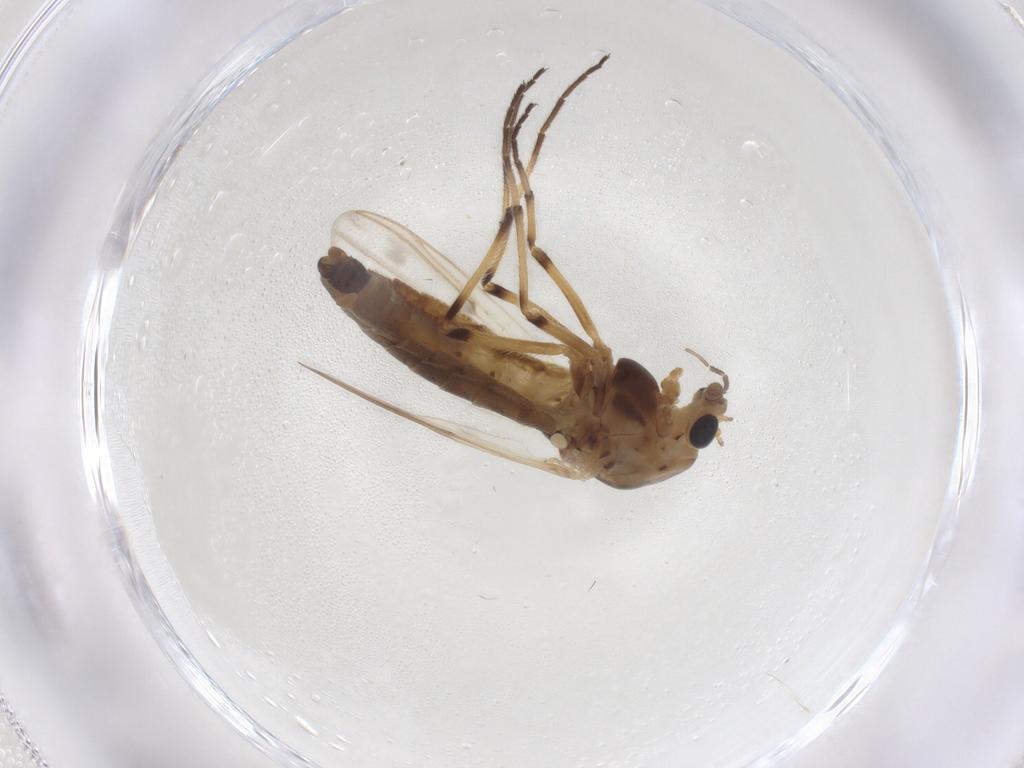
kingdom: Animalia
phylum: Arthropoda
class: Insecta
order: Diptera
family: Chironomidae
